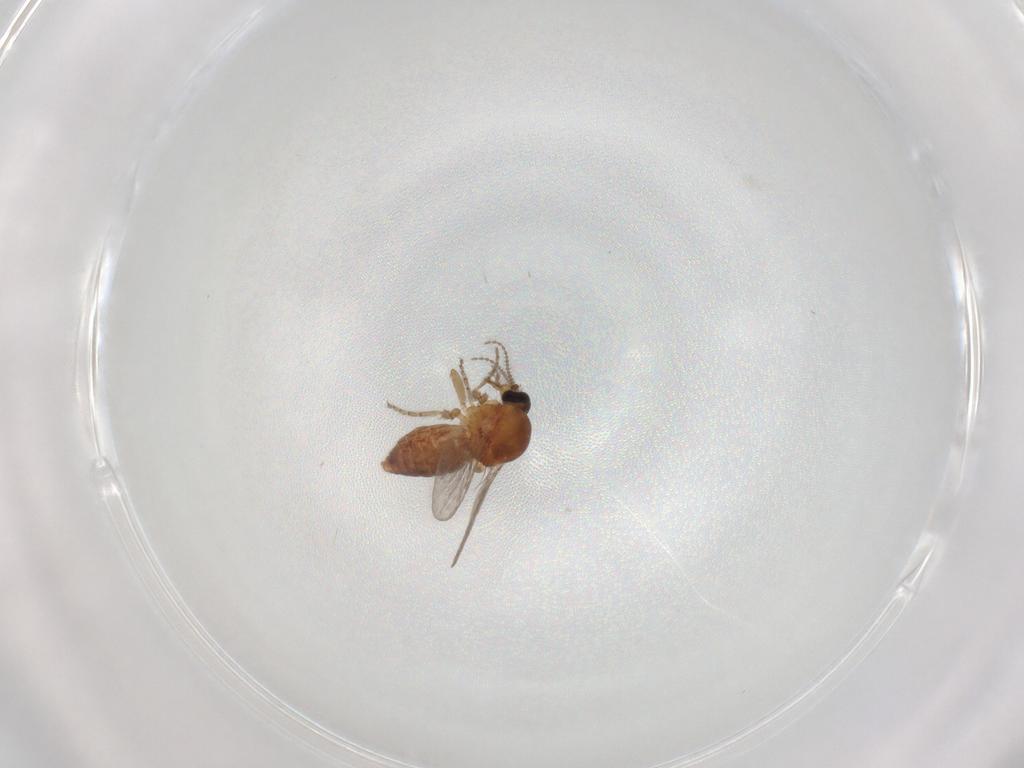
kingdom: Animalia
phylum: Arthropoda
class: Insecta
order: Diptera
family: Ceratopogonidae
